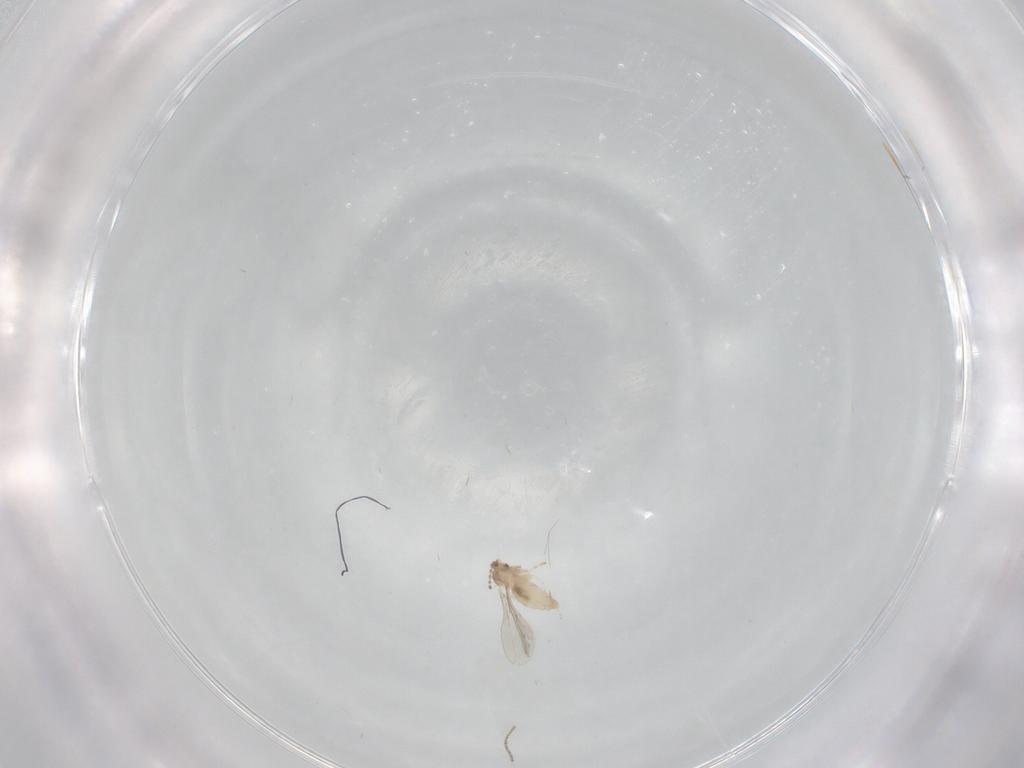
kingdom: Animalia
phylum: Arthropoda
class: Insecta
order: Diptera
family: Cecidomyiidae
